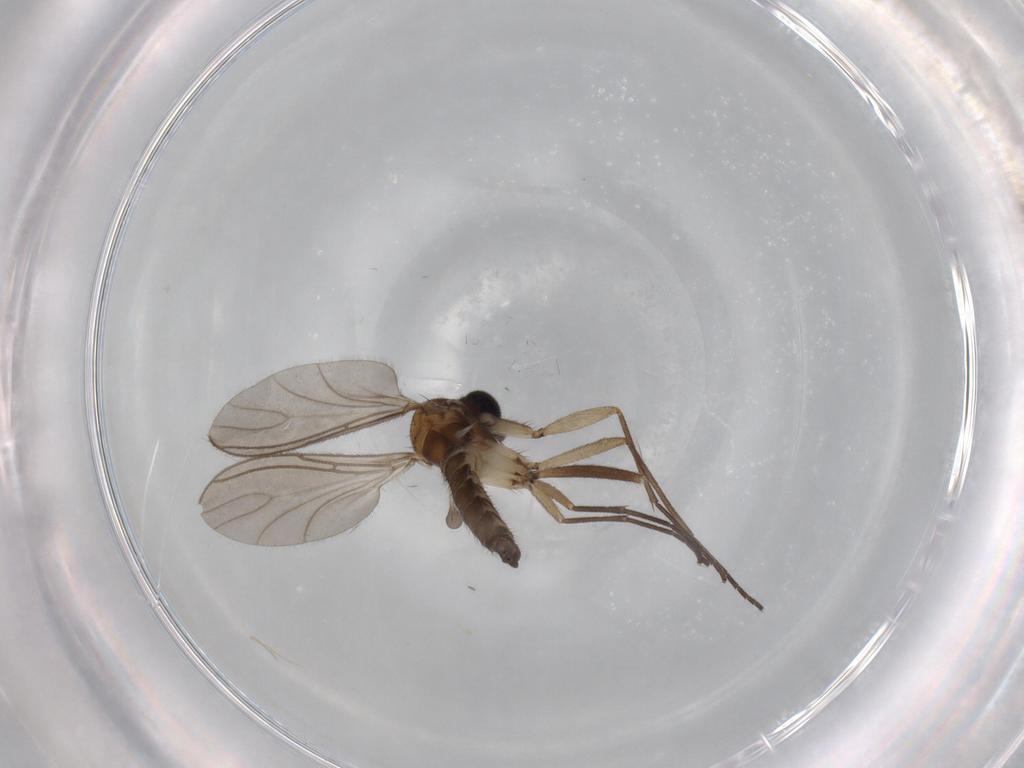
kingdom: Animalia
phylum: Arthropoda
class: Insecta
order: Diptera
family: Sciaridae
